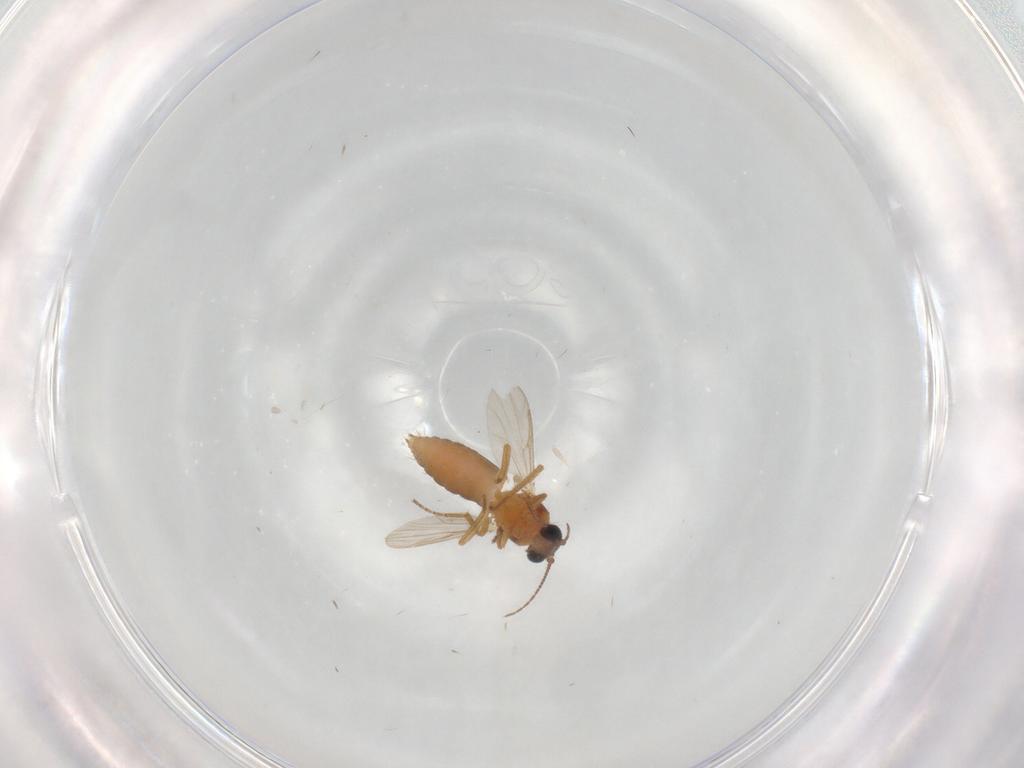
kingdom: Animalia
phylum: Arthropoda
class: Insecta
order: Diptera
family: Ceratopogonidae
